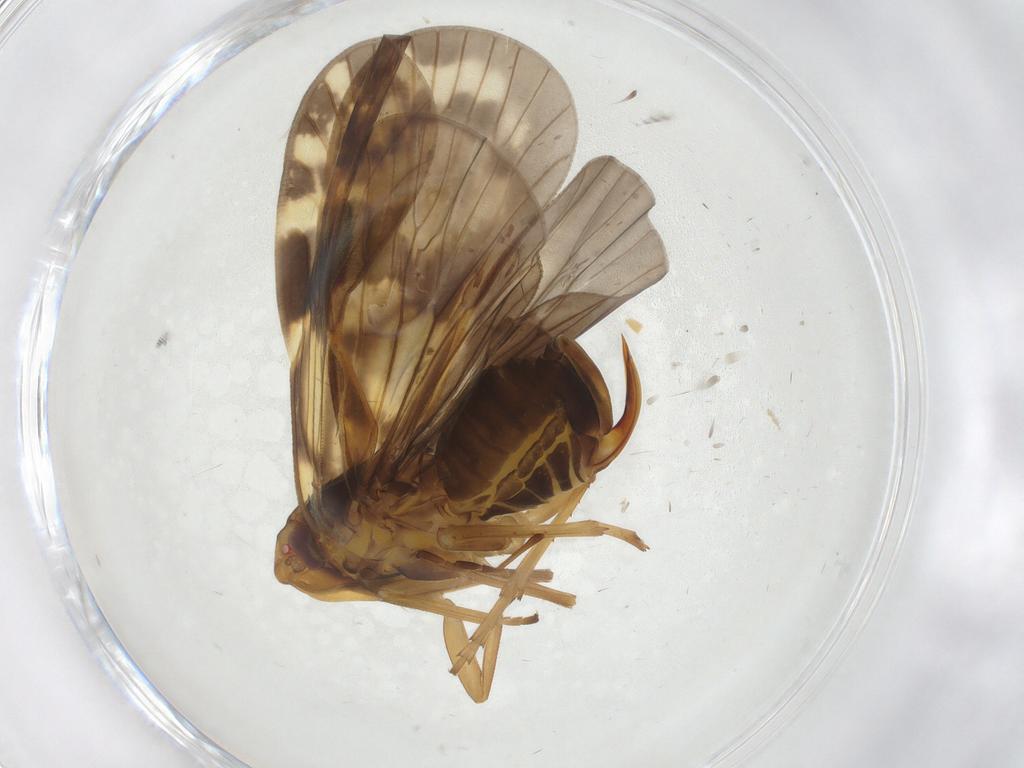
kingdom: Animalia
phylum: Arthropoda
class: Insecta
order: Hemiptera
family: Cixiidae
